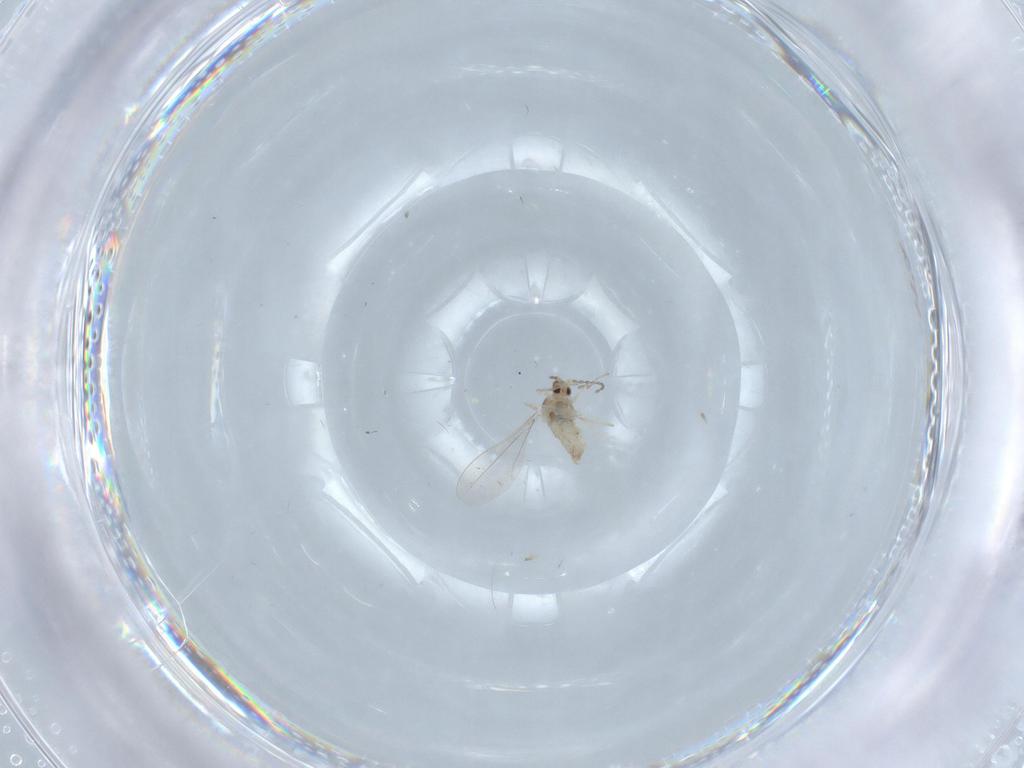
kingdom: Animalia
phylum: Arthropoda
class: Insecta
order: Diptera
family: Cecidomyiidae
